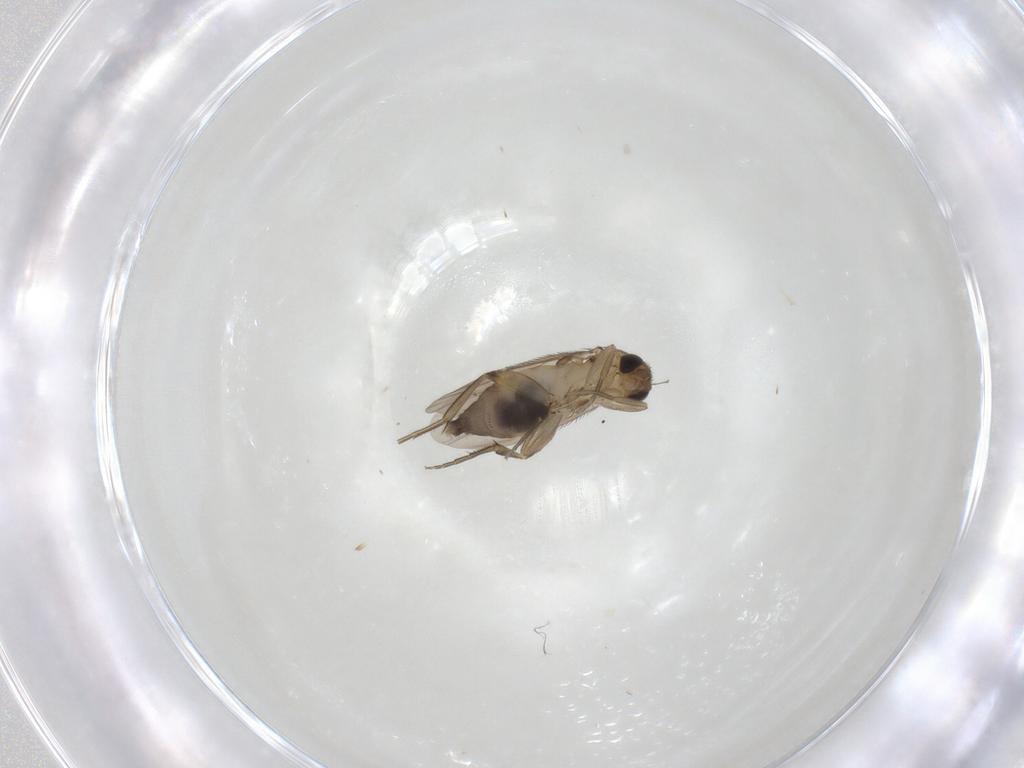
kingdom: Animalia
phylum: Arthropoda
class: Insecta
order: Diptera
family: Phoridae
